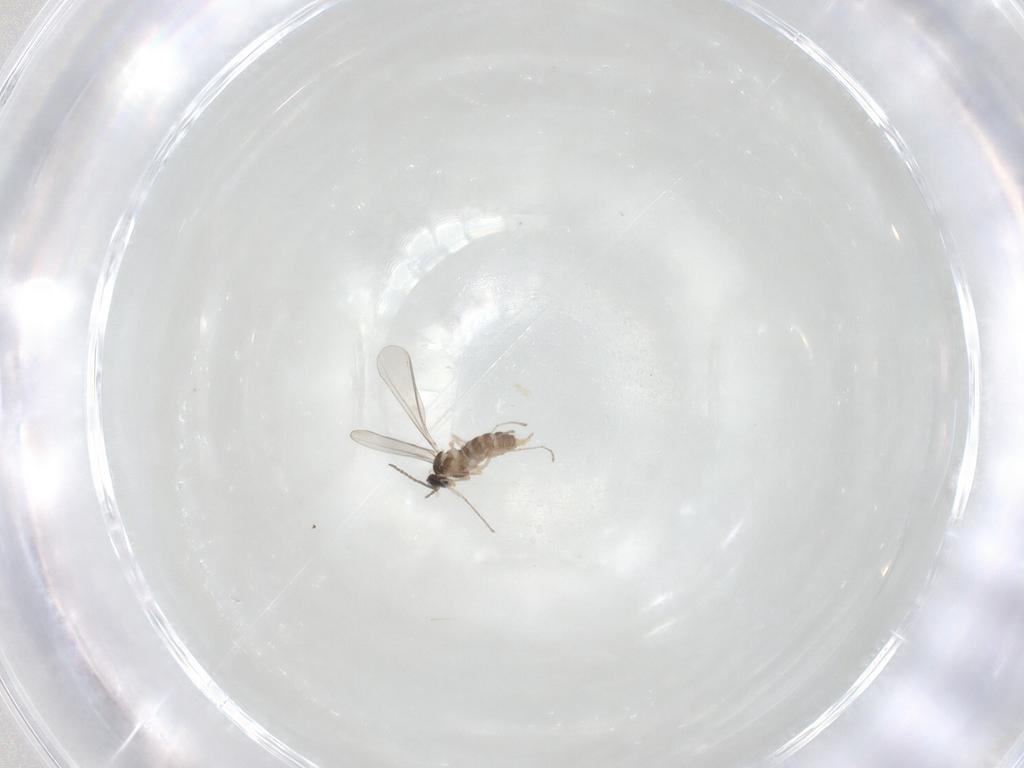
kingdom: Animalia
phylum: Arthropoda
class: Insecta
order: Diptera
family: Cecidomyiidae
